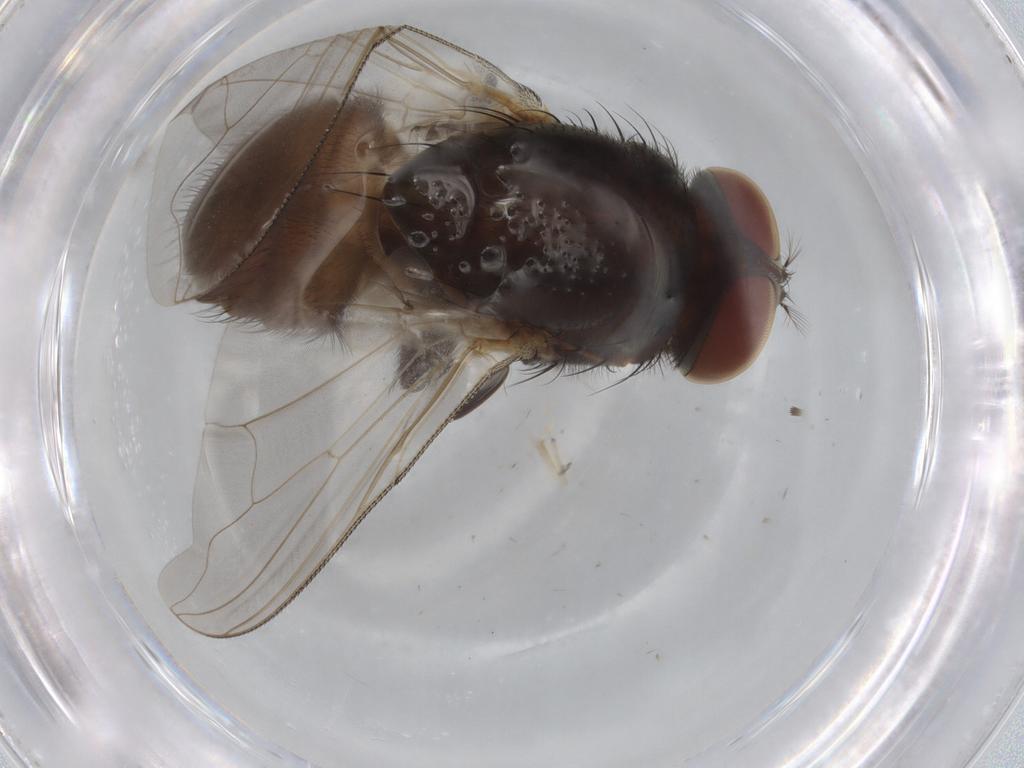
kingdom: Animalia
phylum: Arthropoda
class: Insecta
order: Diptera
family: Muscidae
